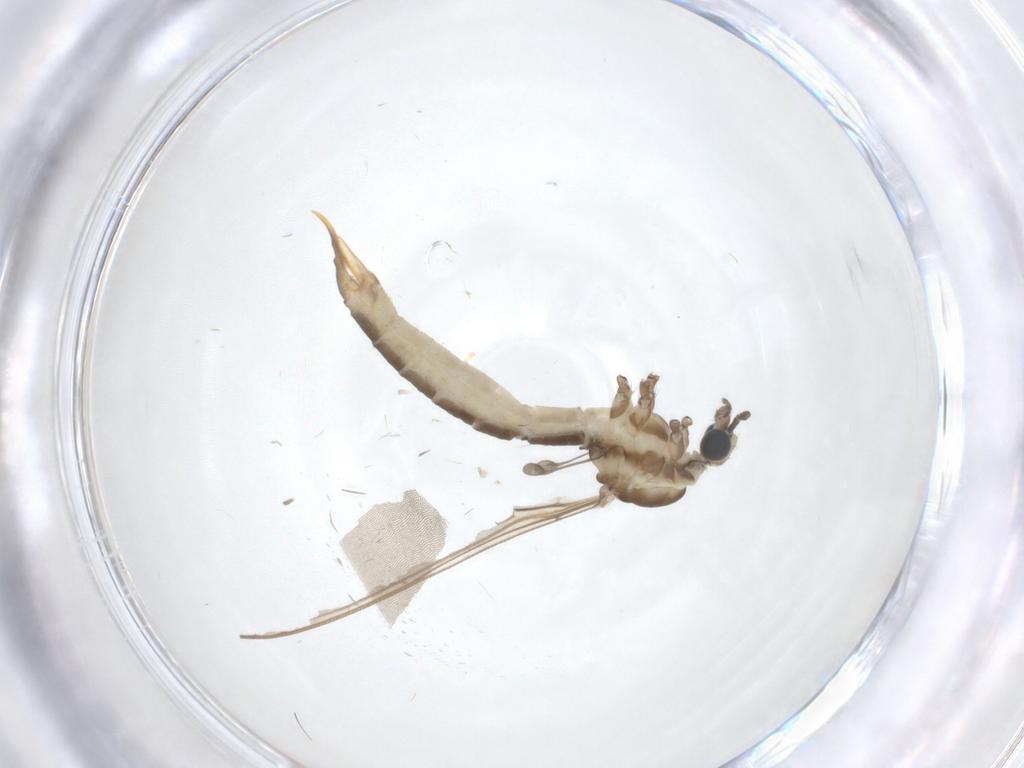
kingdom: Animalia
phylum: Arthropoda
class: Insecta
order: Diptera
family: Limoniidae
